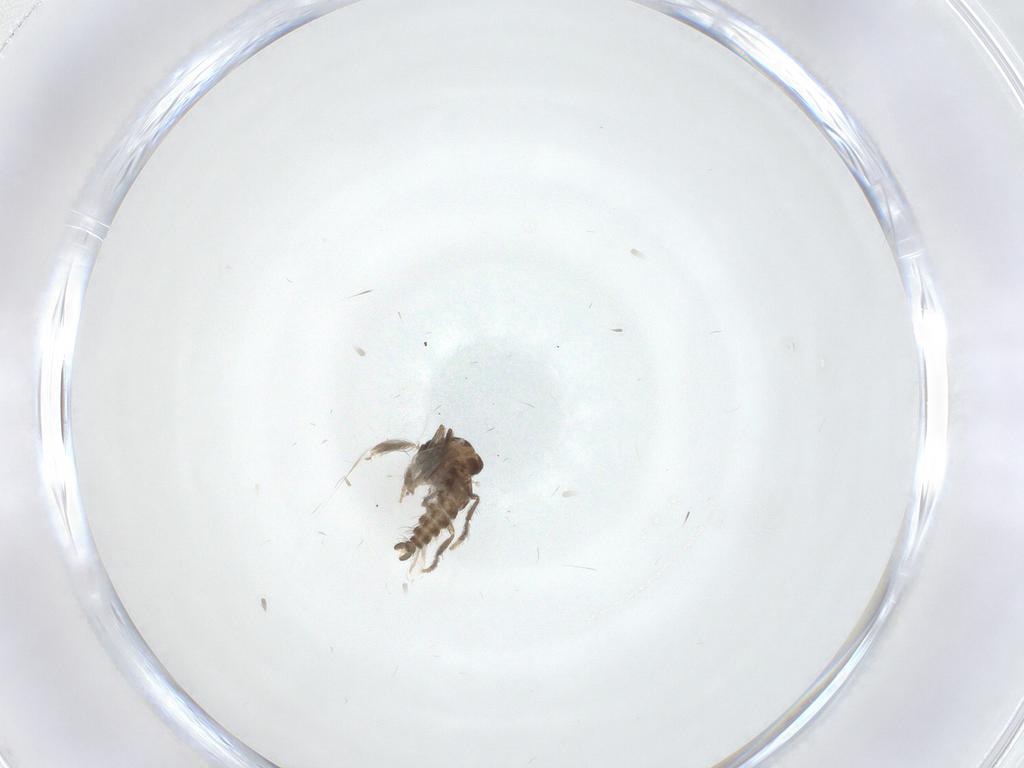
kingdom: Animalia
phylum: Arthropoda
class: Insecta
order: Diptera
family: Ceratopogonidae
